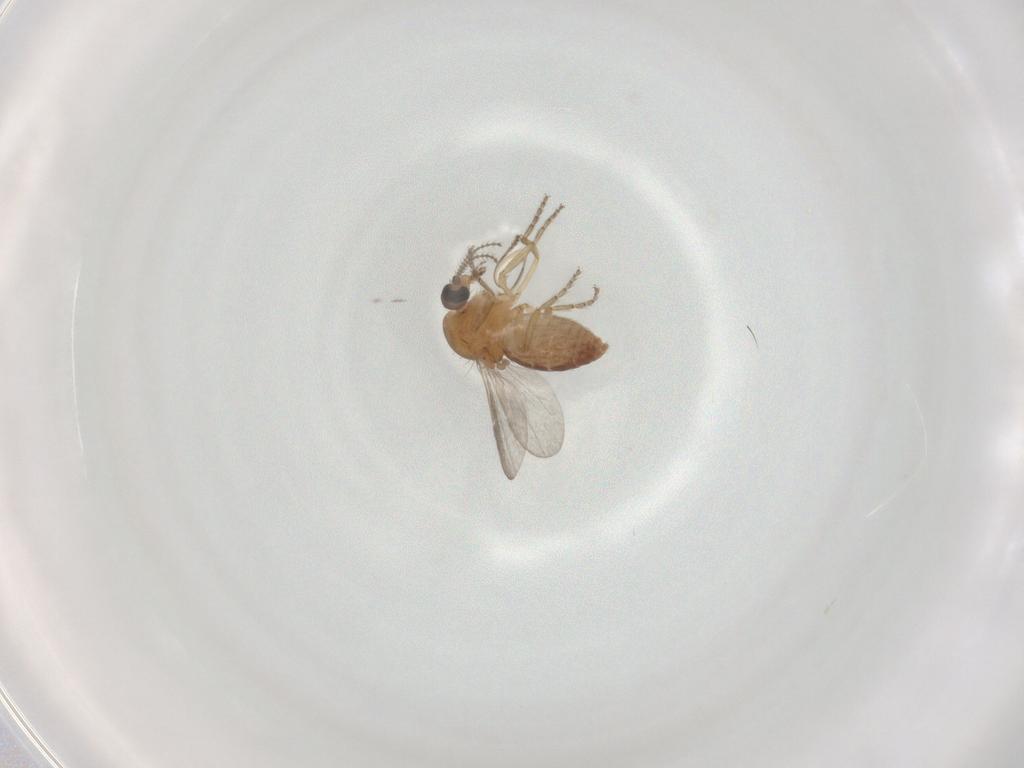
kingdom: Animalia
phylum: Arthropoda
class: Insecta
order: Diptera
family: Ceratopogonidae
